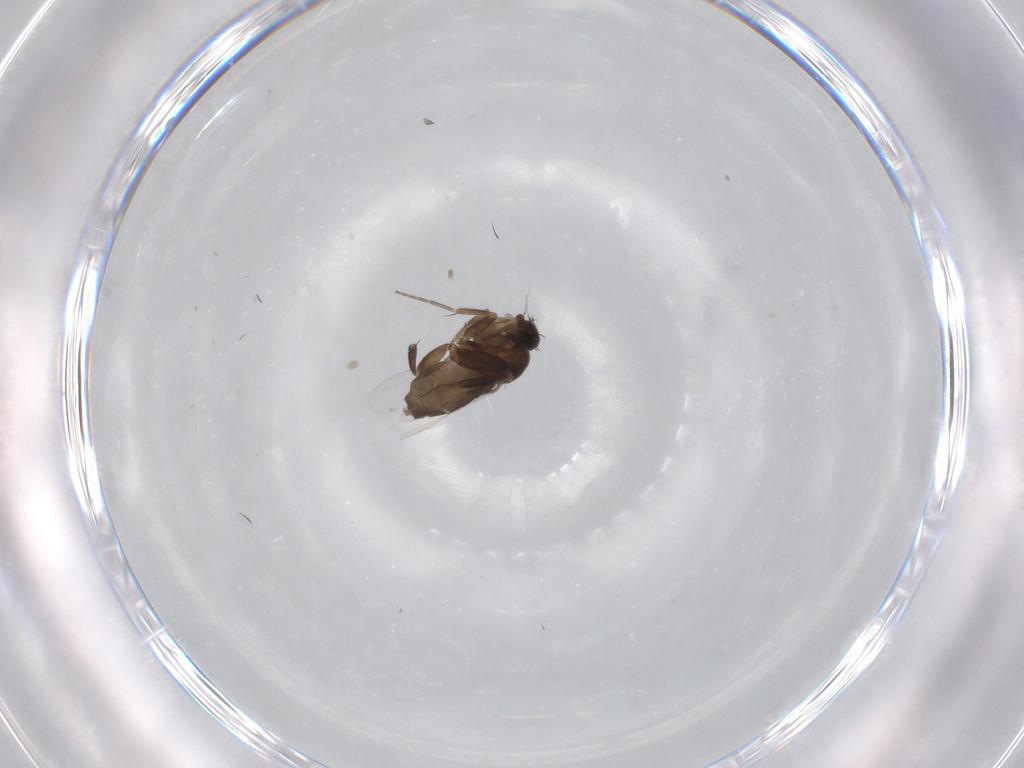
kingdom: Animalia
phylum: Arthropoda
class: Insecta
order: Diptera
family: Phoridae
